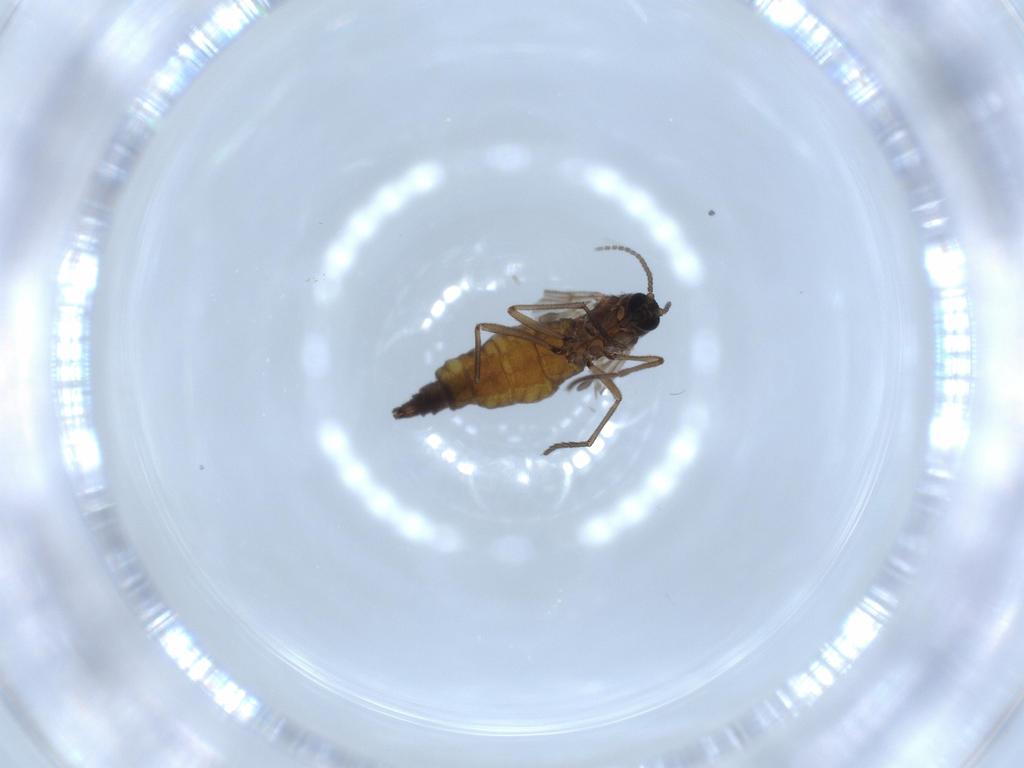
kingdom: Animalia
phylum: Arthropoda
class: Insecta
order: Diptera
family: Sciaridae
